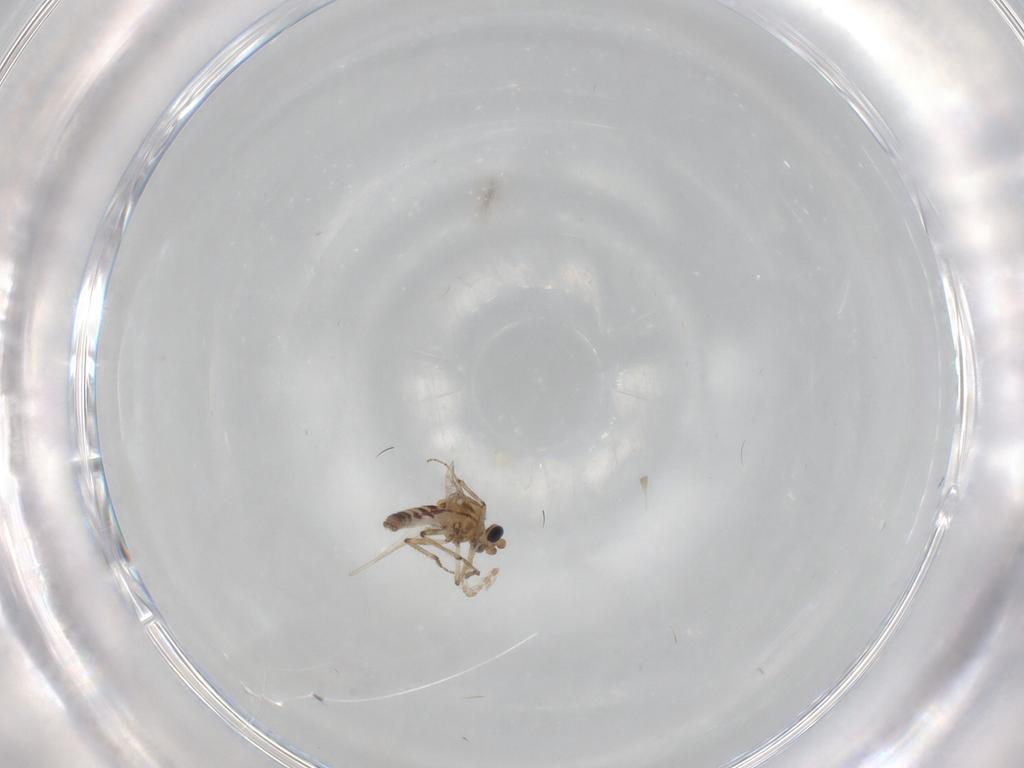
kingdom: Animalia
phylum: Arthropoda
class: Insecta
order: Diptera
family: Ceratopogonidae
